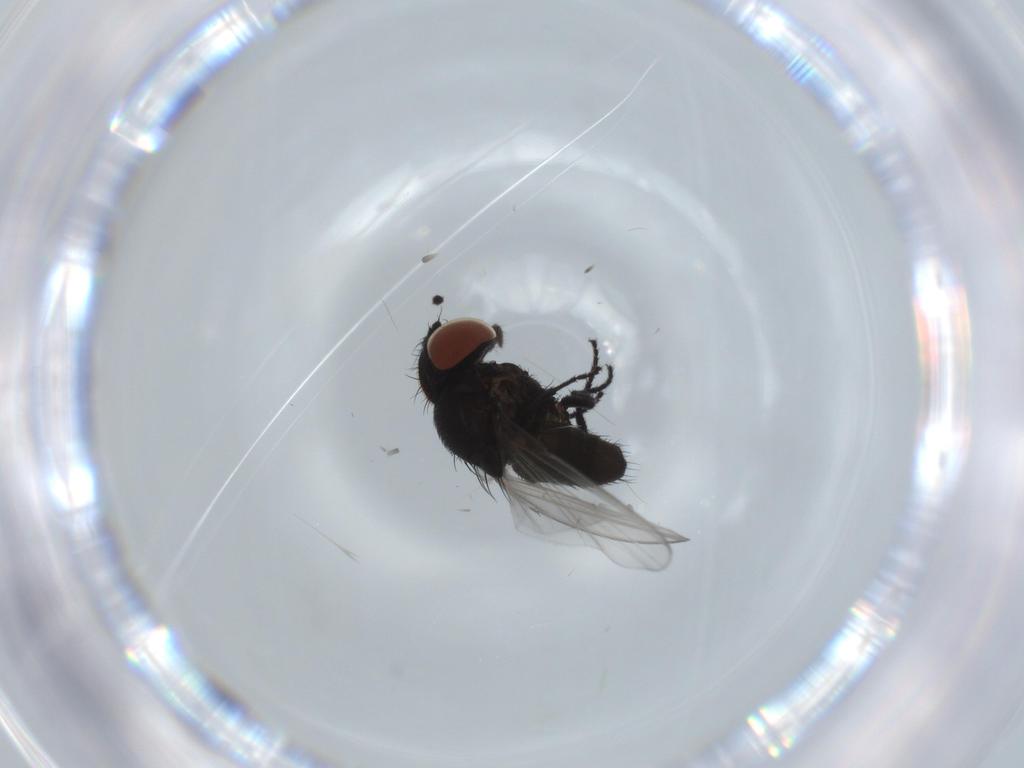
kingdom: Animalia
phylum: Arthropoda
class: Insecta
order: Diptera
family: Milichiidae
